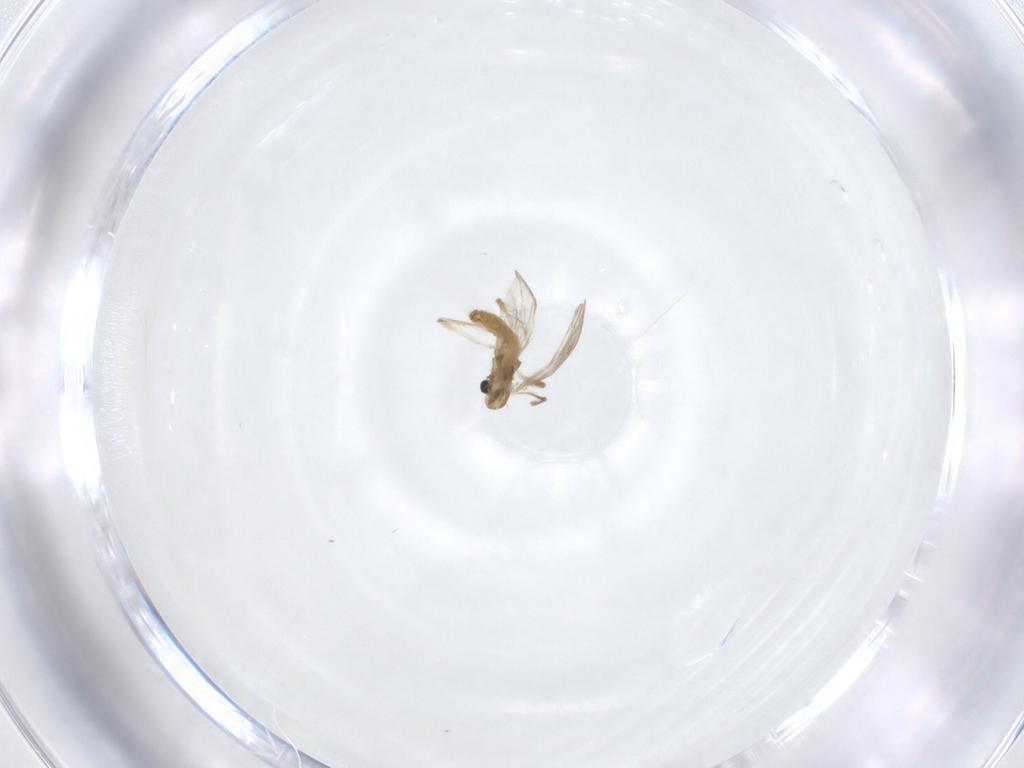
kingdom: Animalia
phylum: Arthropoda
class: Insecta
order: Diptera
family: Chironomidae
